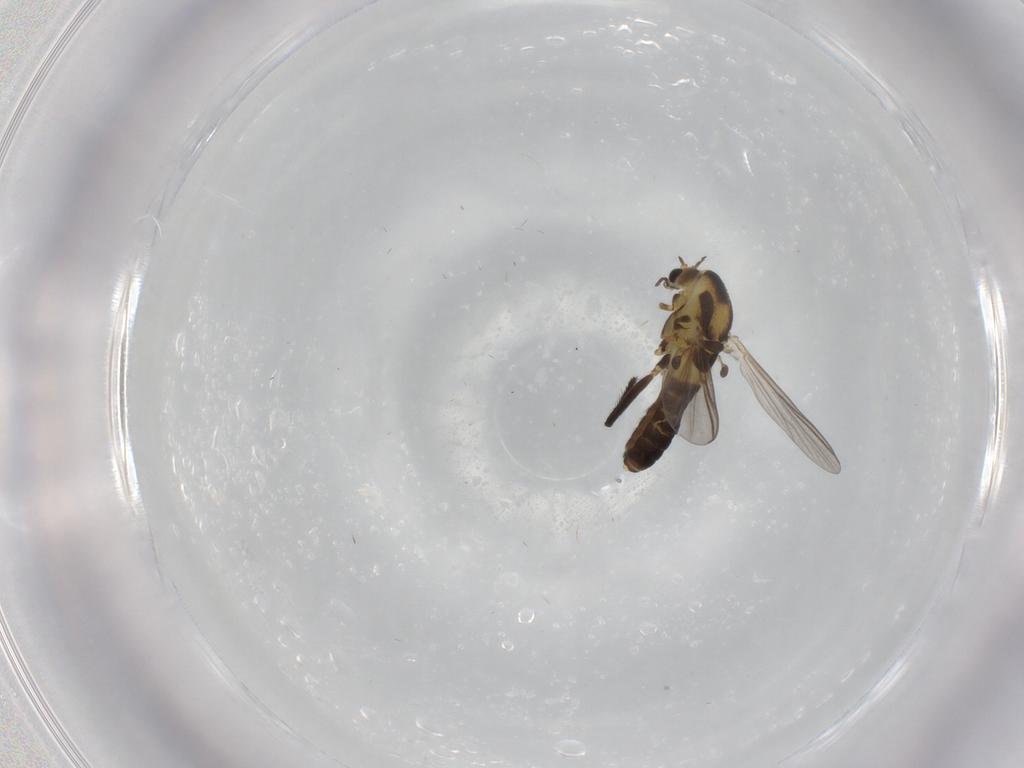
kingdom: Animalia
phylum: Arthropoda
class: Insecta
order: Diptera
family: Chironomidae
